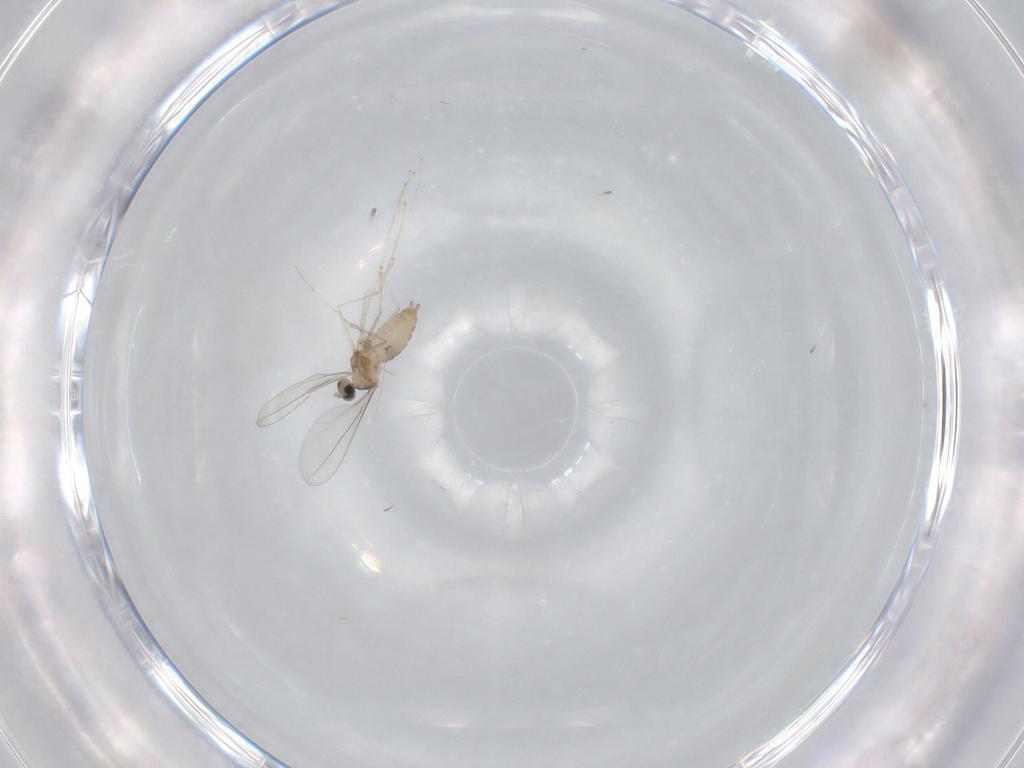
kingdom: Animalia
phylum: Arthropoda
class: Insecta
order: Diptera
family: Cecidomyiidae
